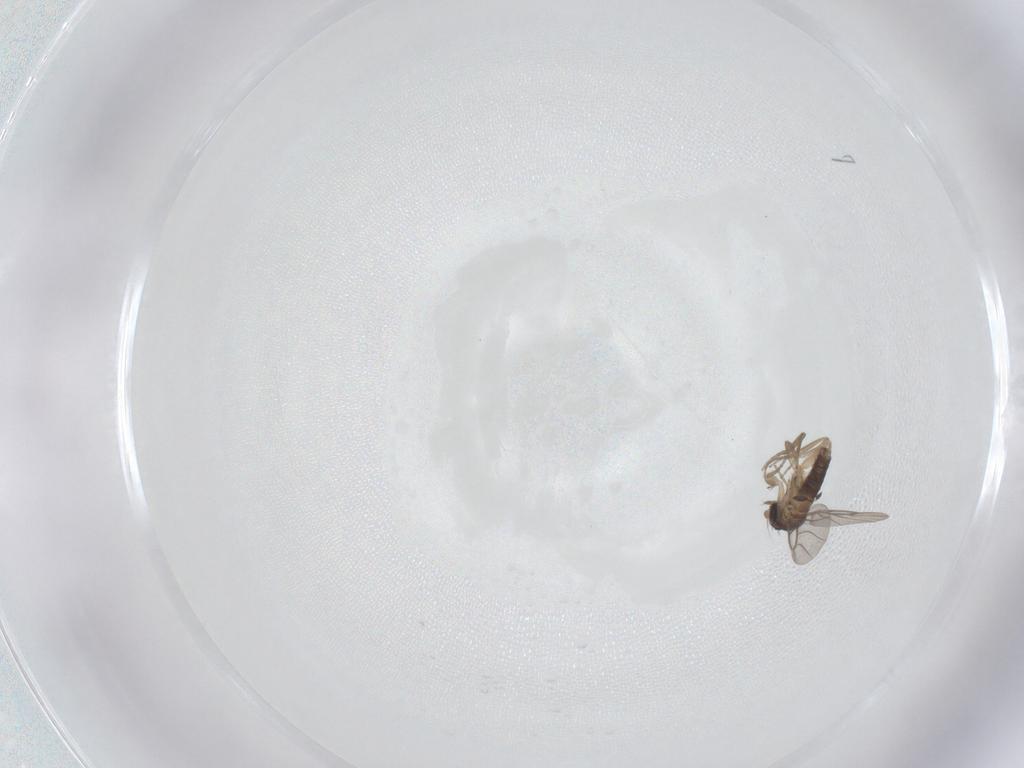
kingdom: Animalia
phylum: Arthropoda
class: Insecta
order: Diptera
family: Phoridae
